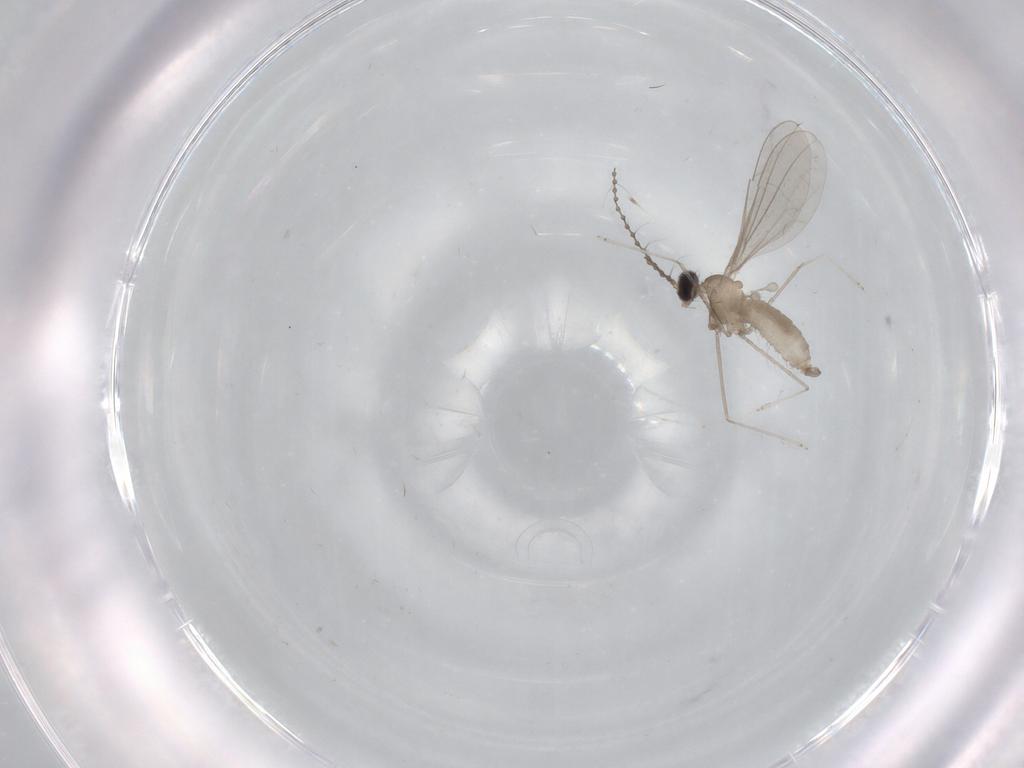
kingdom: Animalia
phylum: Arthropoda
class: Insecta
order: Diptera
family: Cecidomyiidae
